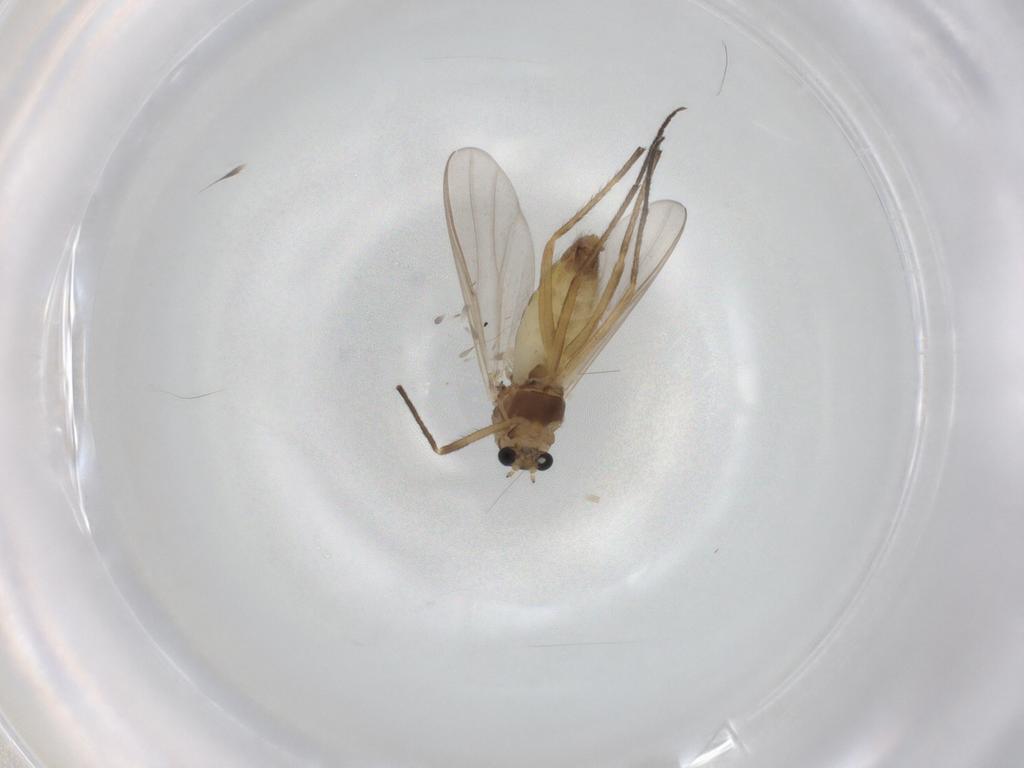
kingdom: Animalia
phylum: Arthropoda
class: Insecta
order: Diptera
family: Chironomidae
